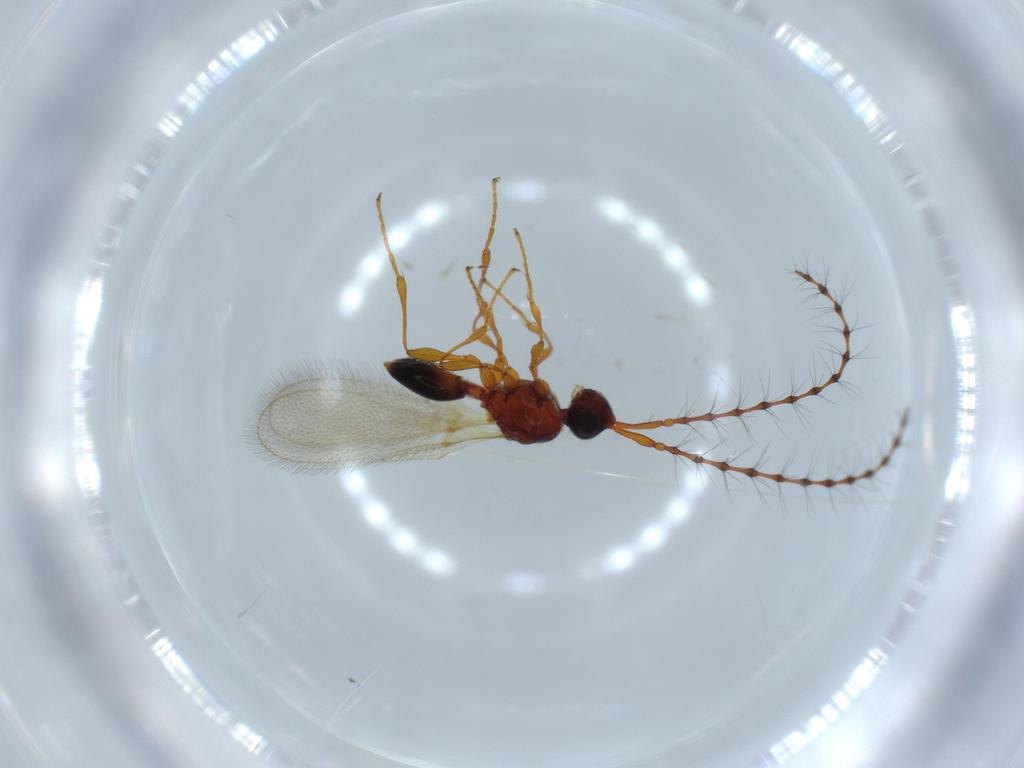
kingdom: Animalia
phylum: Arthropoda
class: Insecta
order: Hymenoptera
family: Diapriidae
